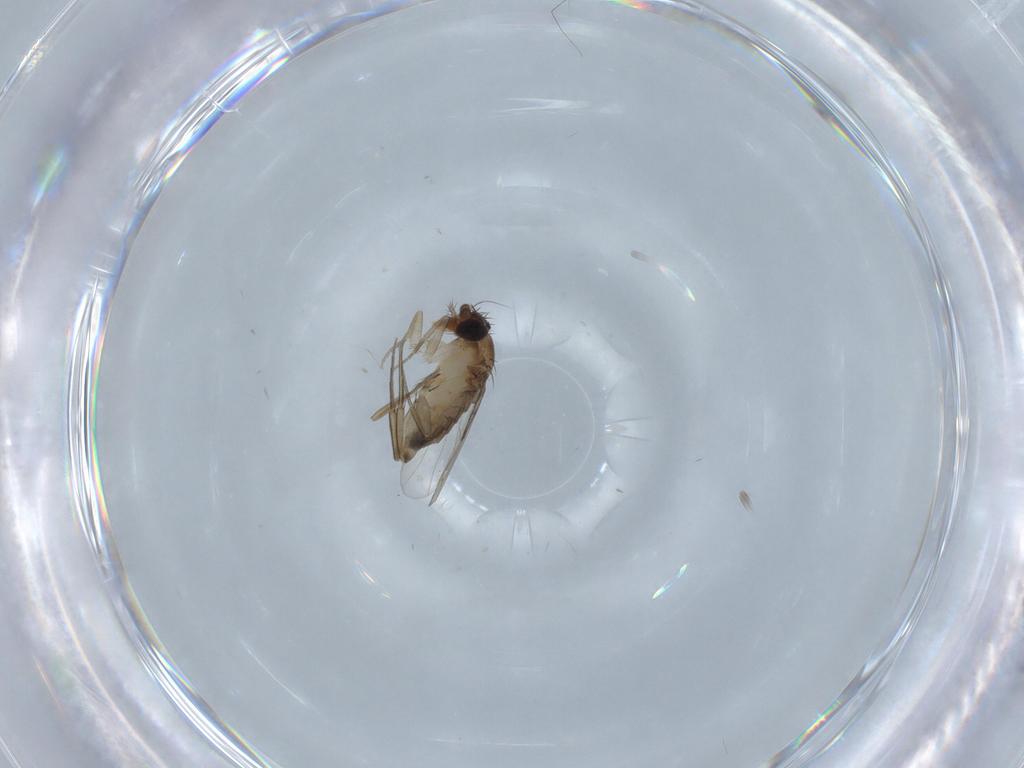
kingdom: Animalia
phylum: Arthropoda
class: Insecta
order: Diptera
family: Phoridae
